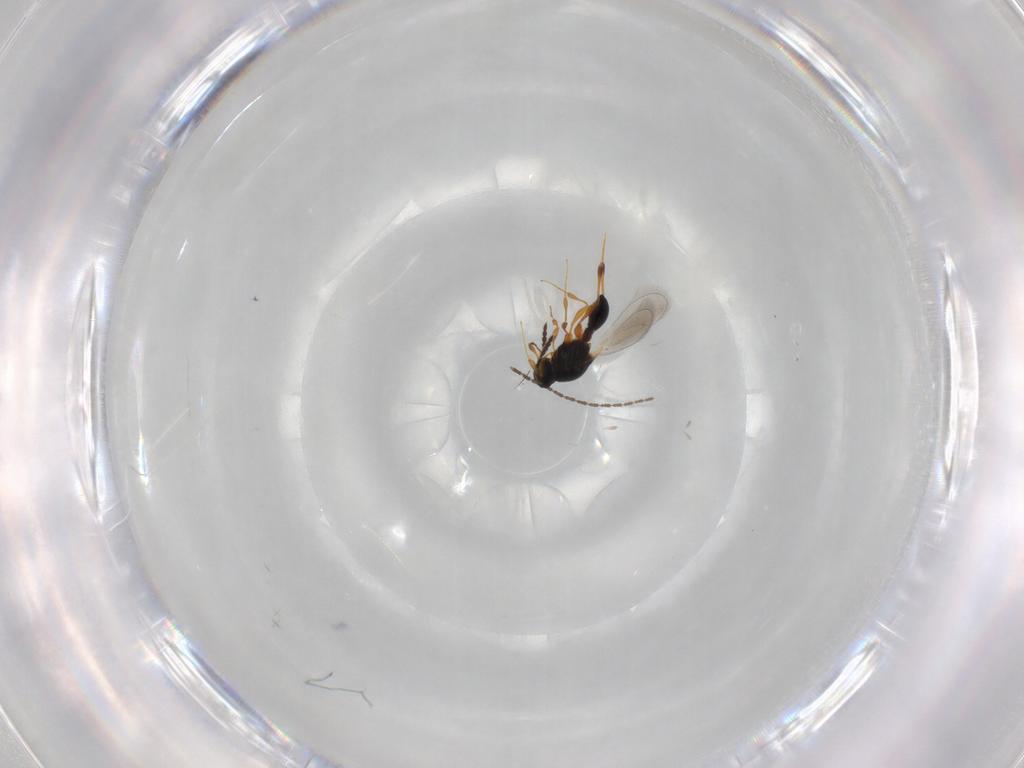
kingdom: Animalia
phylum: Arthropoda
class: Insecta
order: Hymenoptera
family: Platygastridae
